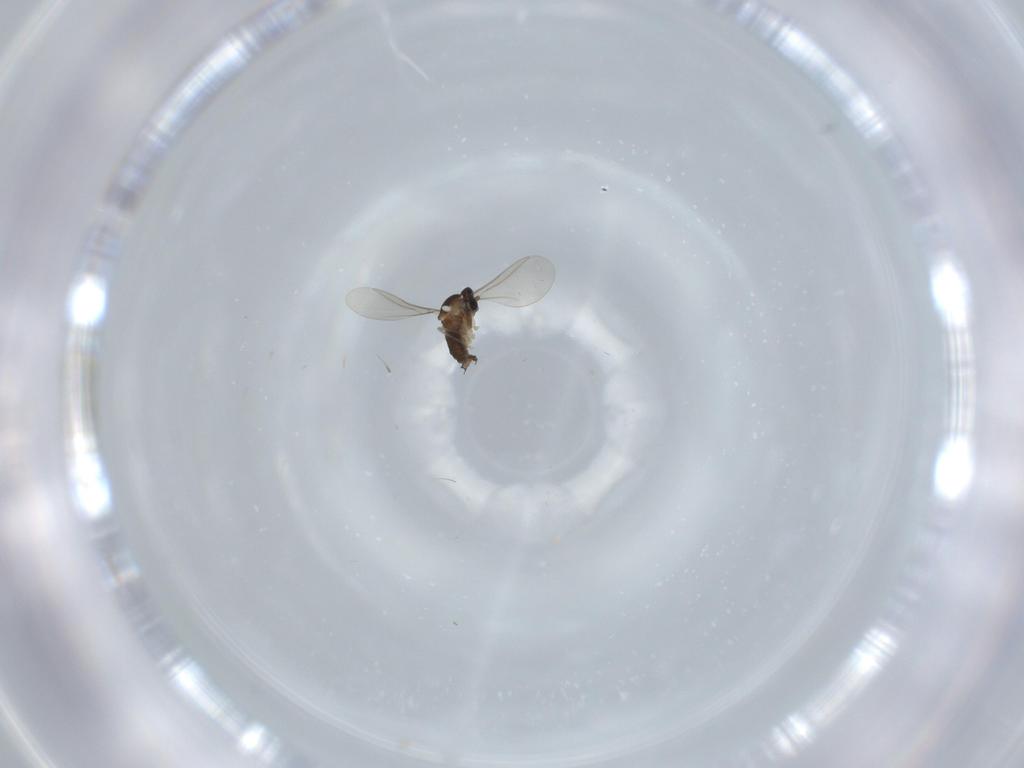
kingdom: Animalia
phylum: Arthropoda
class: Insecta
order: Diptera
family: Cecidomyiidae
